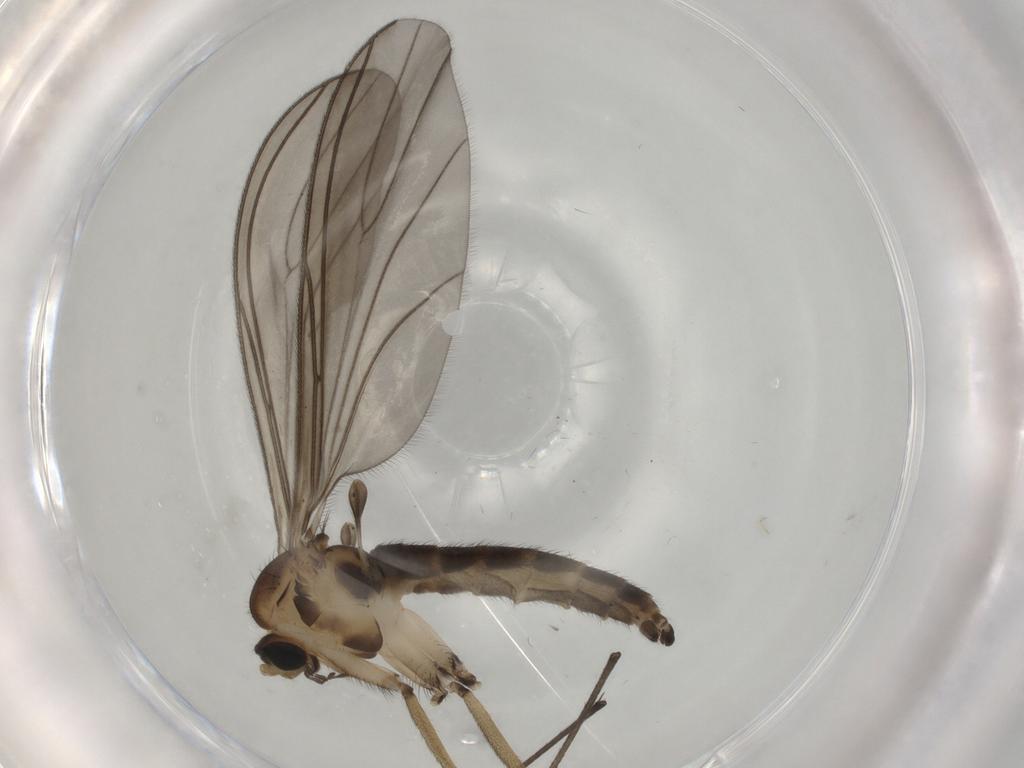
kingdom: Animalia
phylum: Arthropoda
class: Insecta
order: Diptera
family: Sciaridae
